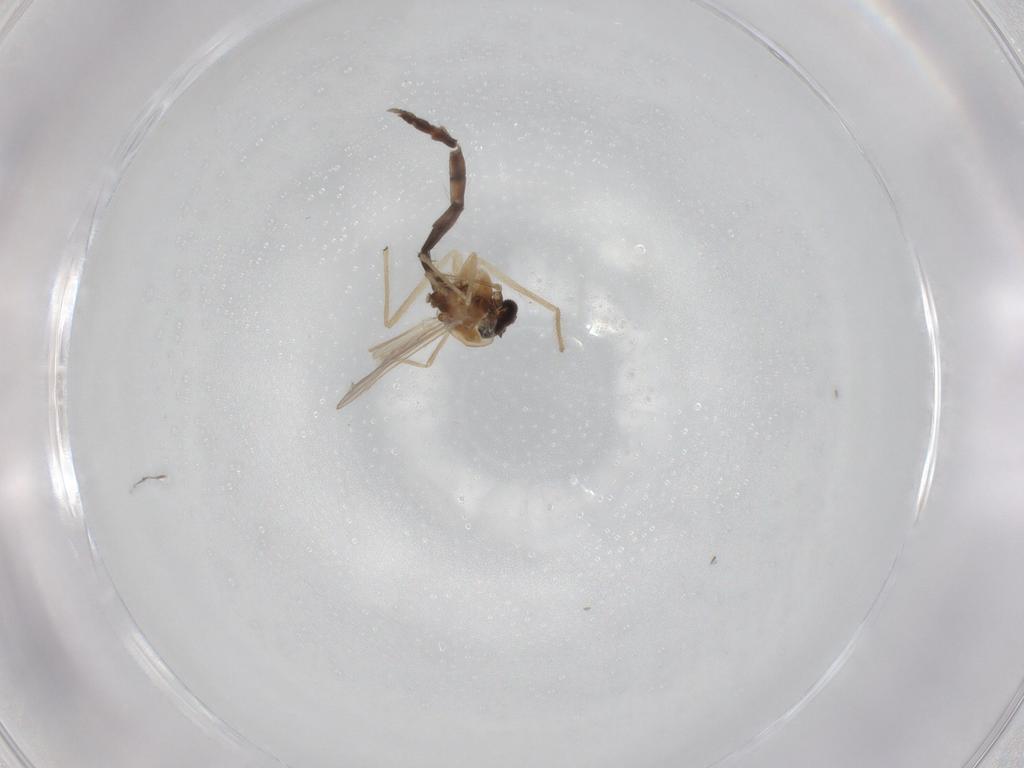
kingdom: Animalia
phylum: Arthropoda
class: Insecta
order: Diptera
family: Chironomidae
